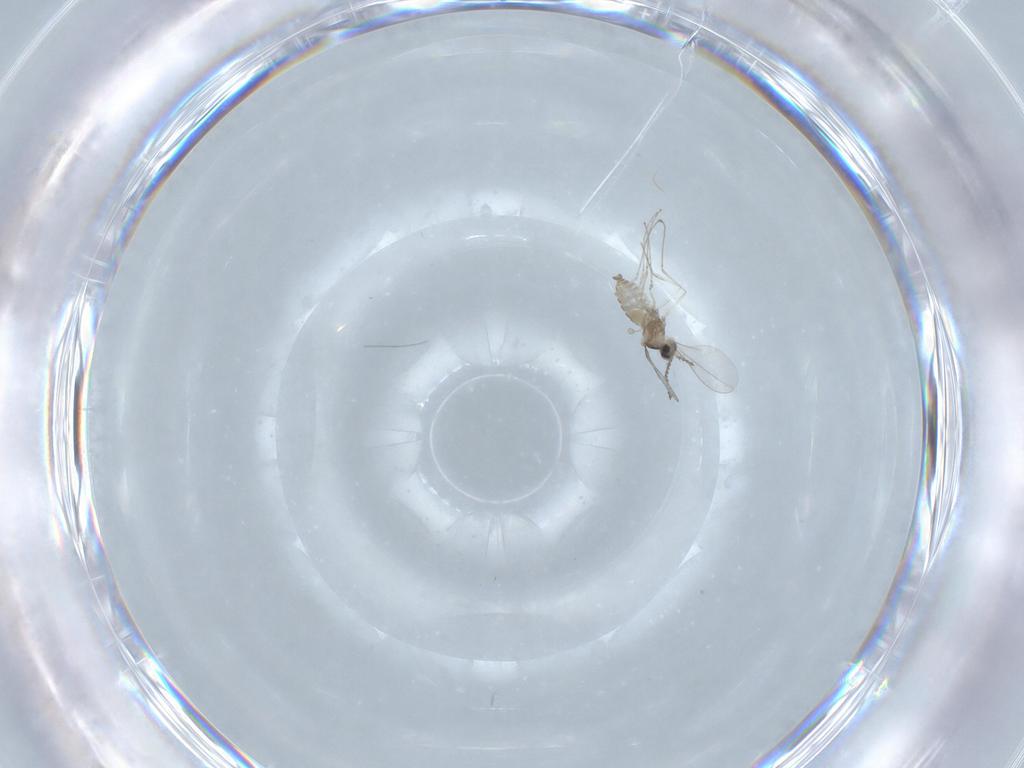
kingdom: Animalia
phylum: Arthropoda
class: Insecta
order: Diptera
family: Cecidomyiidae
